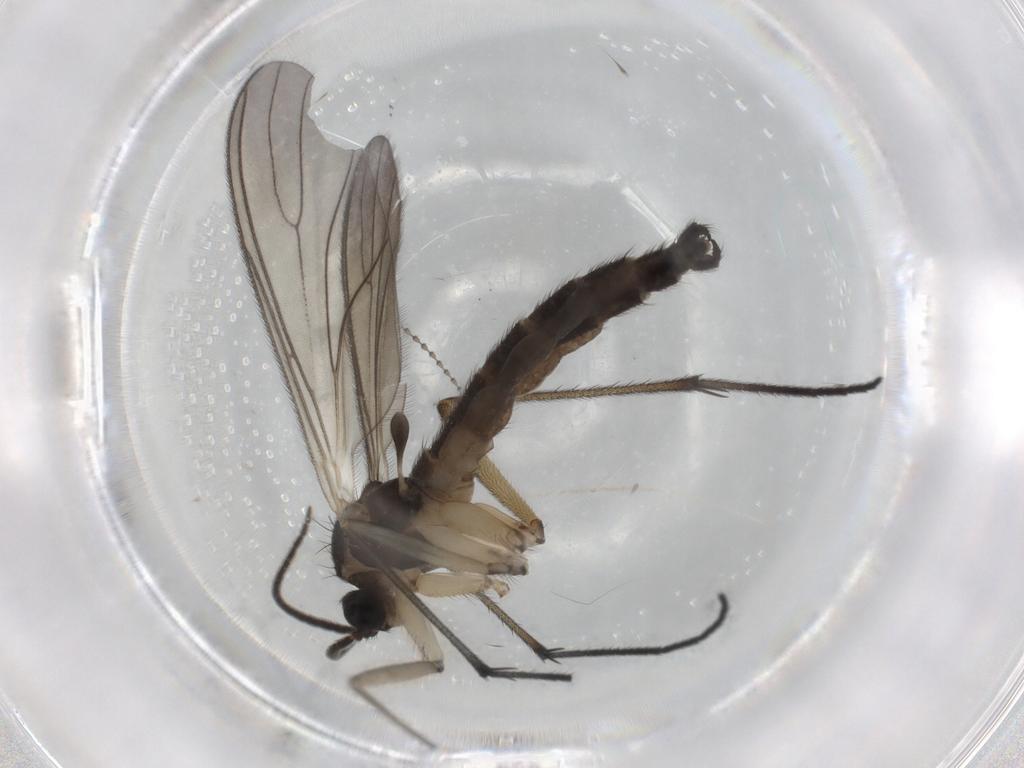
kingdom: Animalia
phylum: Arthropoda
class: Insecta
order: Diptera
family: Sciaridae
